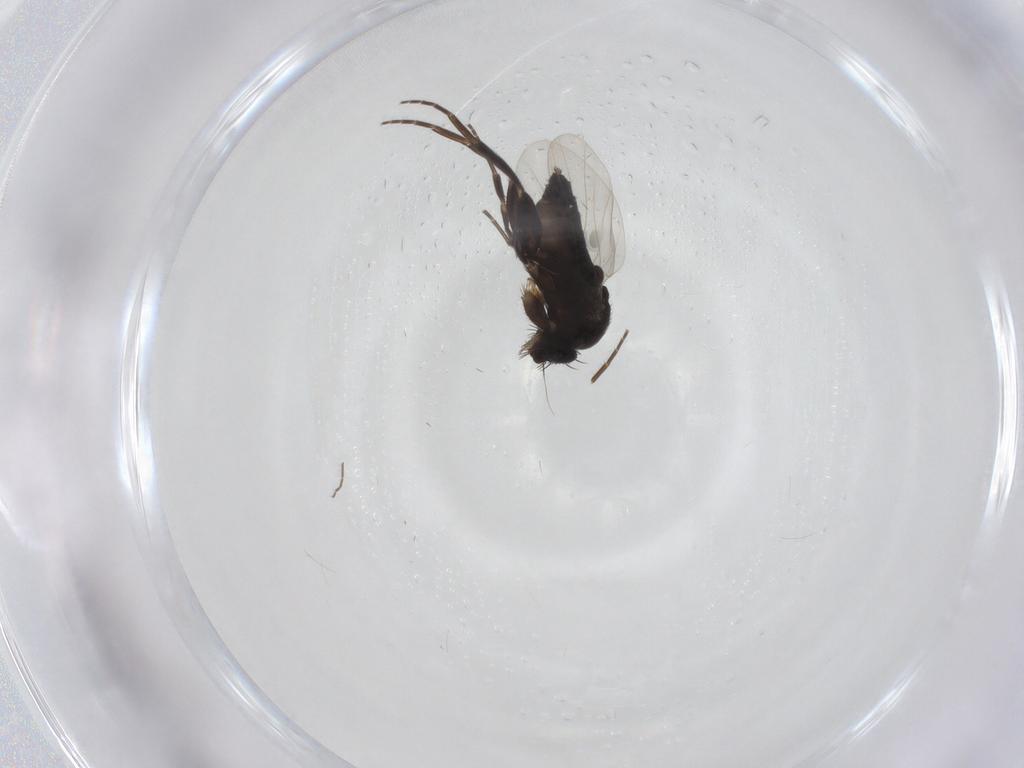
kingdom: Animalia
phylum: Arthropoda
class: Insecta
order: Diptera
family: Phoridae
